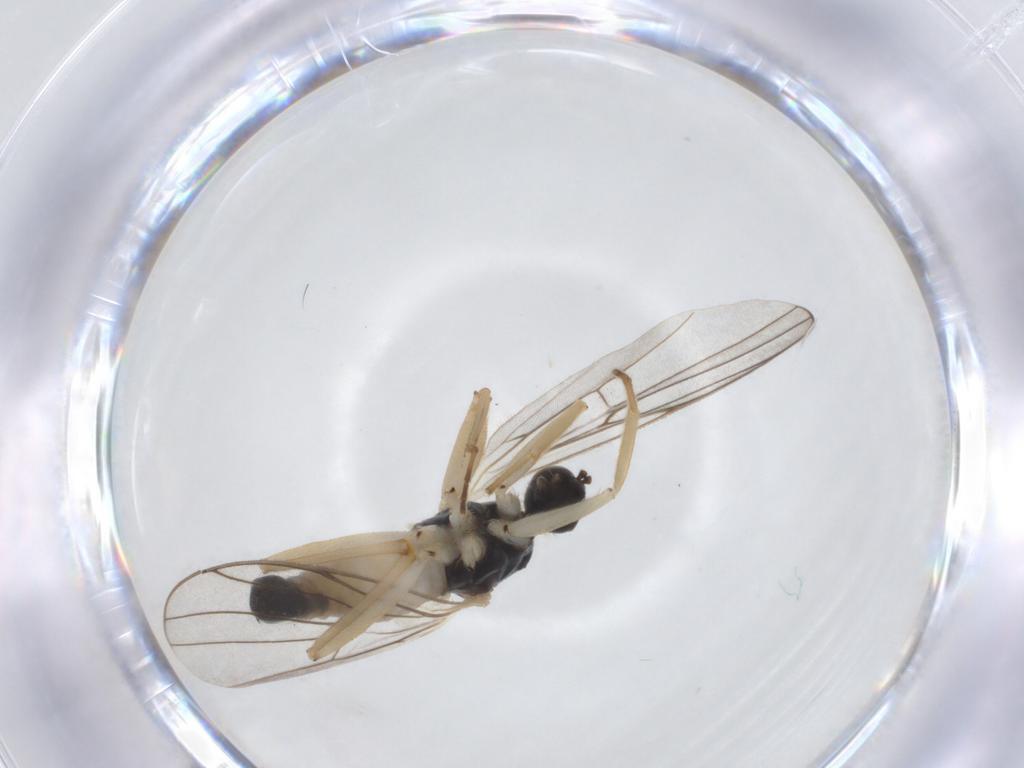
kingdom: Animalia
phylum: Arthropoda
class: Insecta
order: Diptera
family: Hybotidae
